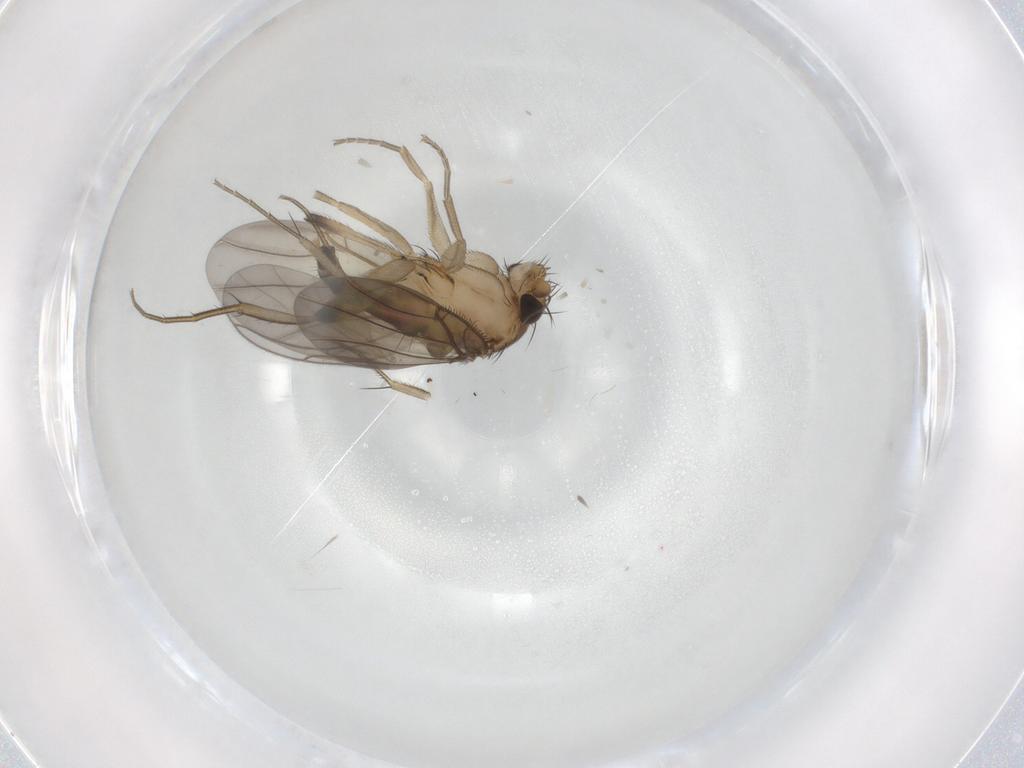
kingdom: Animalia
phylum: Arthropoda
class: Insecta
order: Diptera
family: Phoridae
